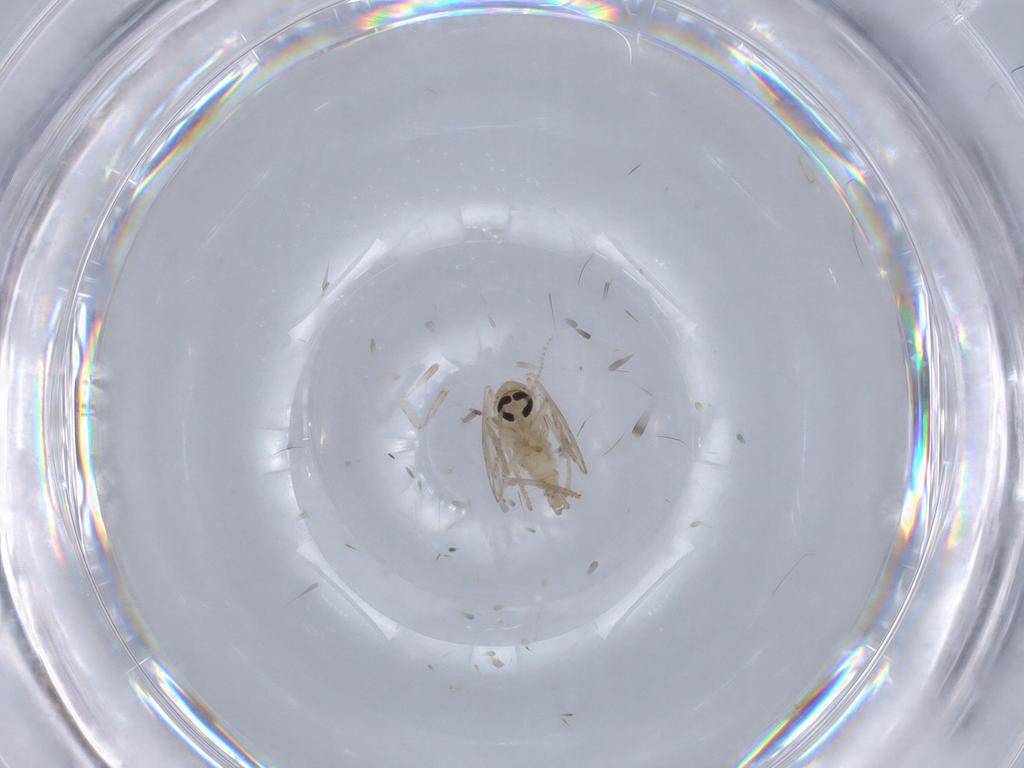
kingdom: Animalia
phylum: Arthropoda
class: Insecta
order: Diptera
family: Psychodidae
